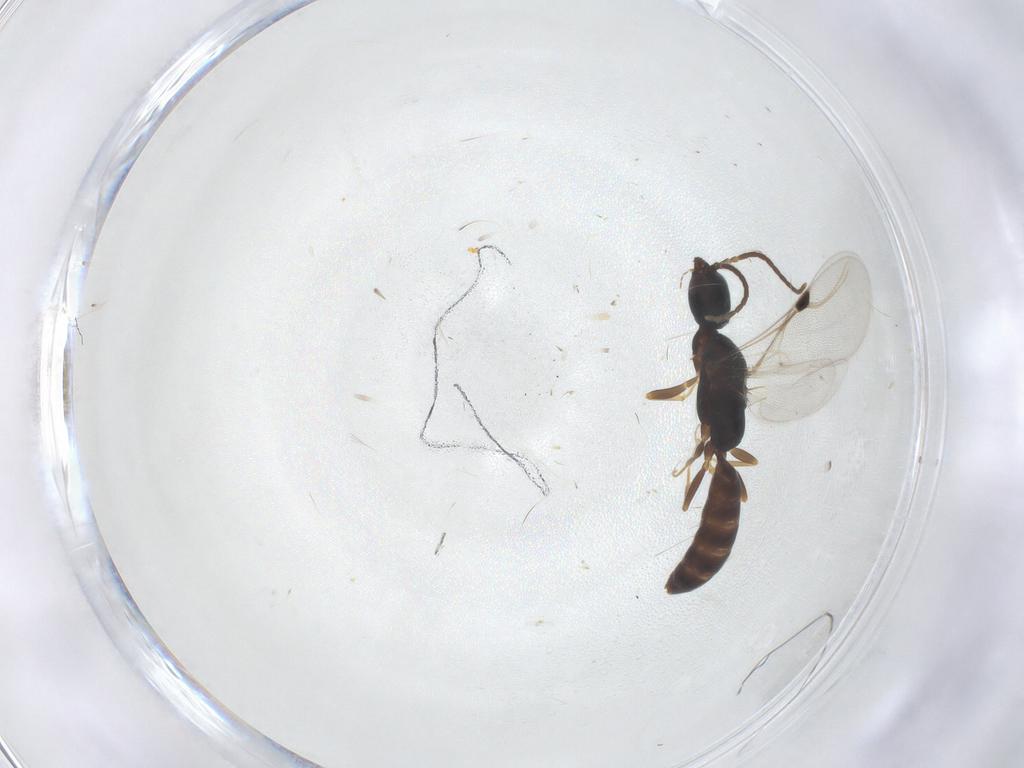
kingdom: Animalia
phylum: Arthropoda
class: Insecta
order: Hymenoptera
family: Bethylidae
